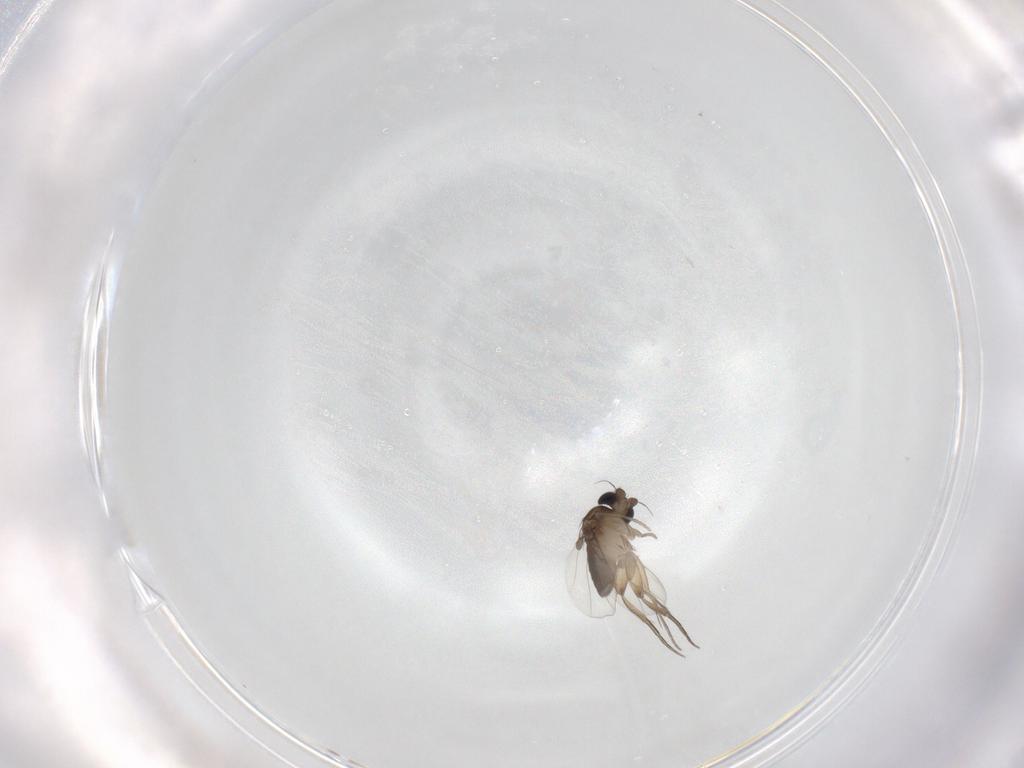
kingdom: Animalia
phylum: Arthropoda
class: Insecta
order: Diptera
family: Phoridae
